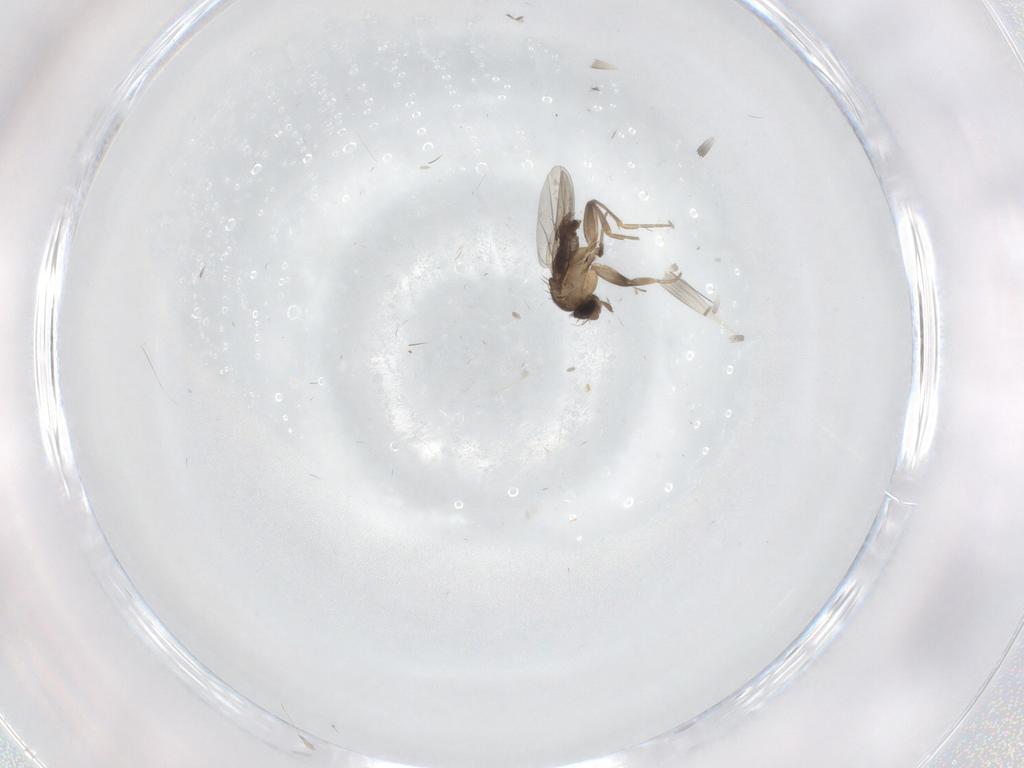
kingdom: Animalia
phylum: Arthropoda
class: Insecta
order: Diptera
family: Phoridae
